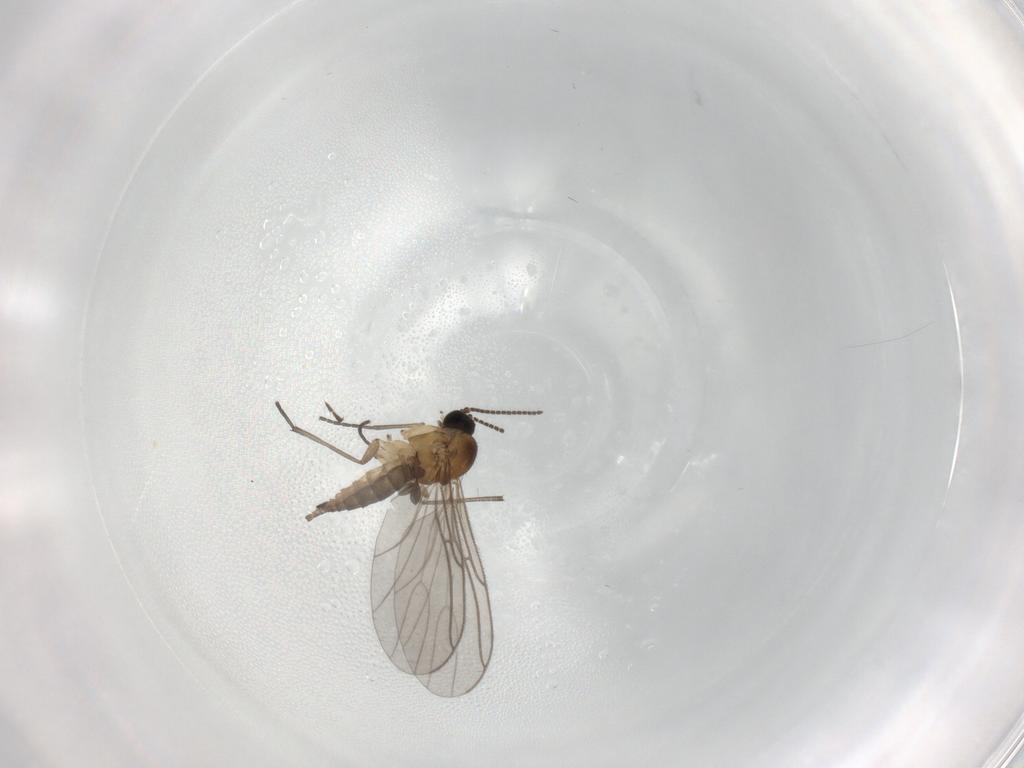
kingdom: Animalia
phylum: Arthropoda
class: Insecta
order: Diptera
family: Sciaridae
